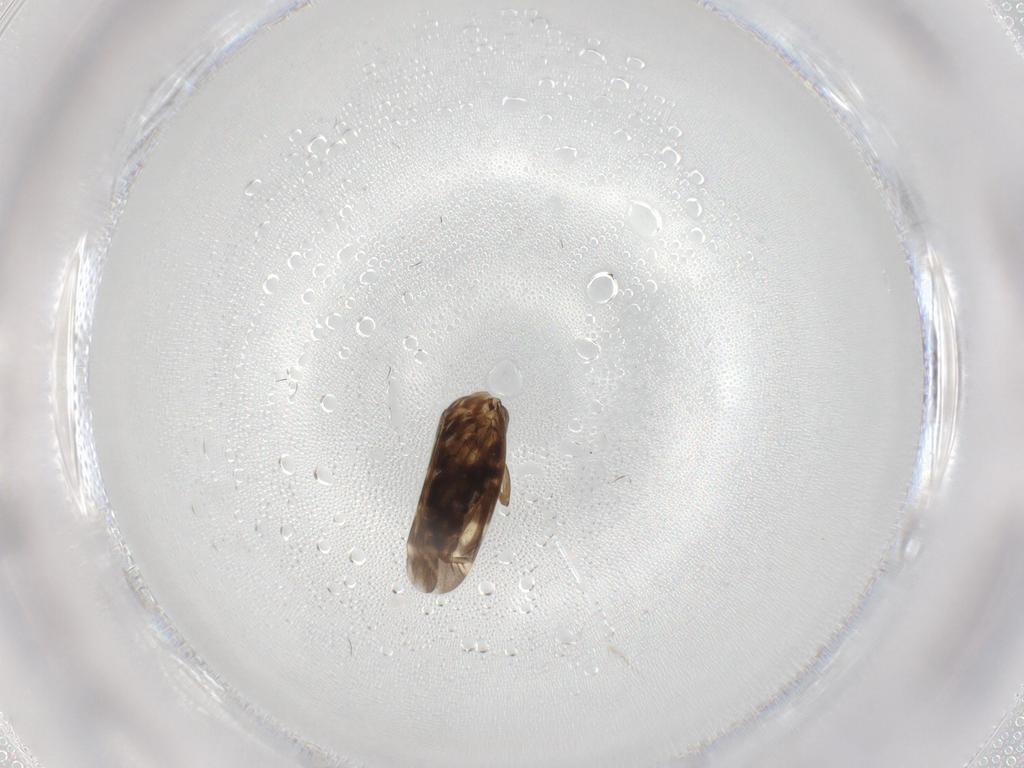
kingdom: Animalia
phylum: Arthropoda
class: Insecta
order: Hemiptera
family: Cicadellidae
